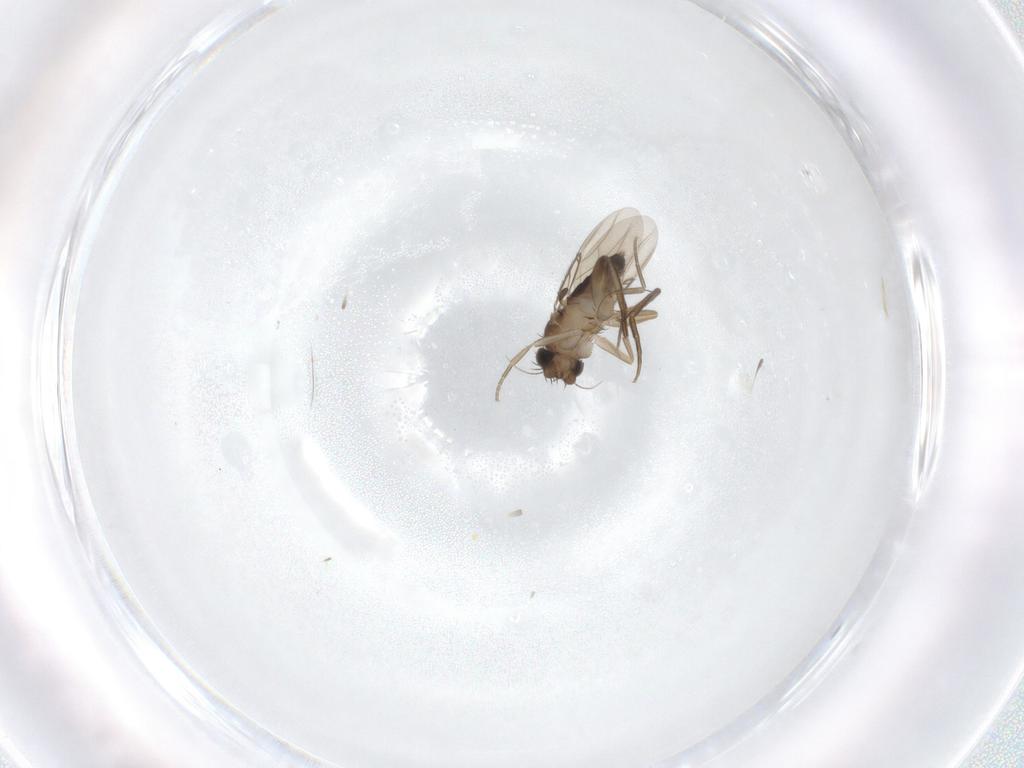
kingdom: Animalia
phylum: Arthropoda
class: Insecta
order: Diptera
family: Phoridae
